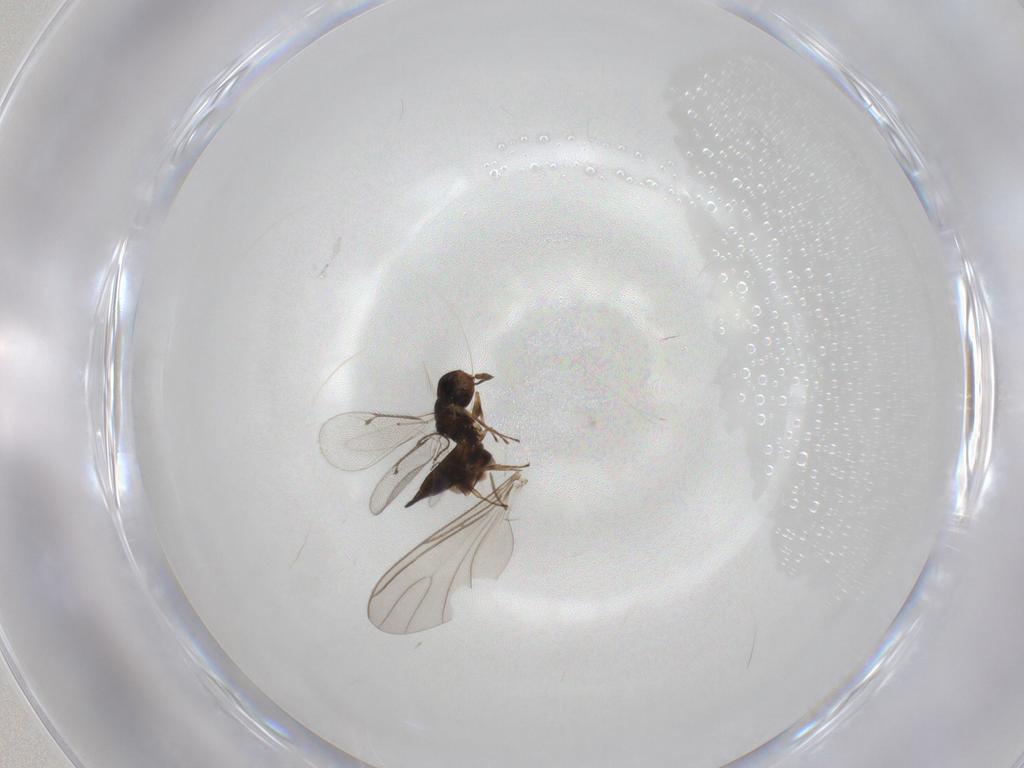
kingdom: Animalia
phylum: Arthropoda
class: Insecta
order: Hymenoptera
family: Eulophidae
